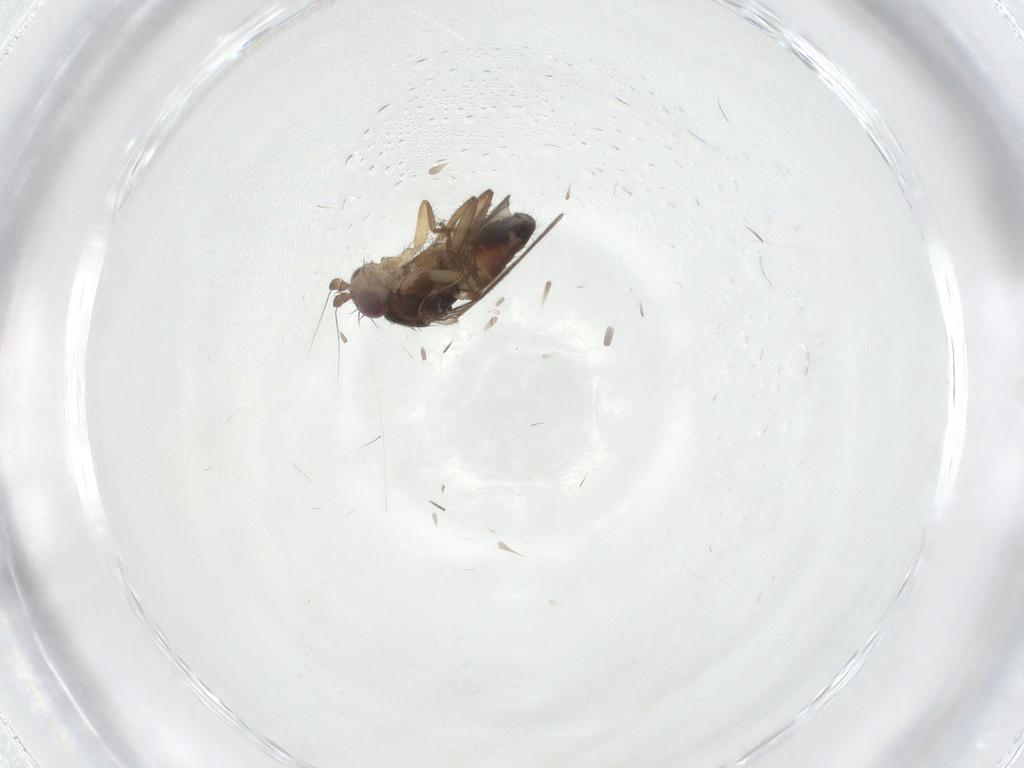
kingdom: Animalia
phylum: Arthropoda
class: Insecta
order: Diptera
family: Sphaeroceridae
